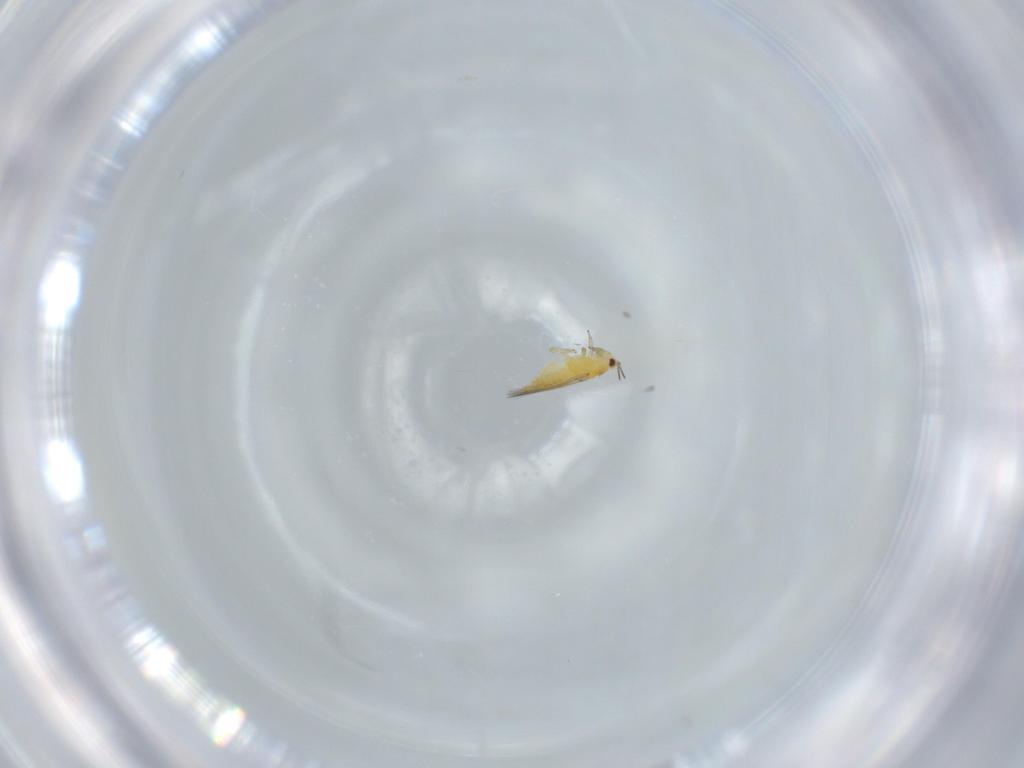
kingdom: Animalia
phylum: Arthropoda
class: Insecta
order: Thysanoptera
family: Thripidae
